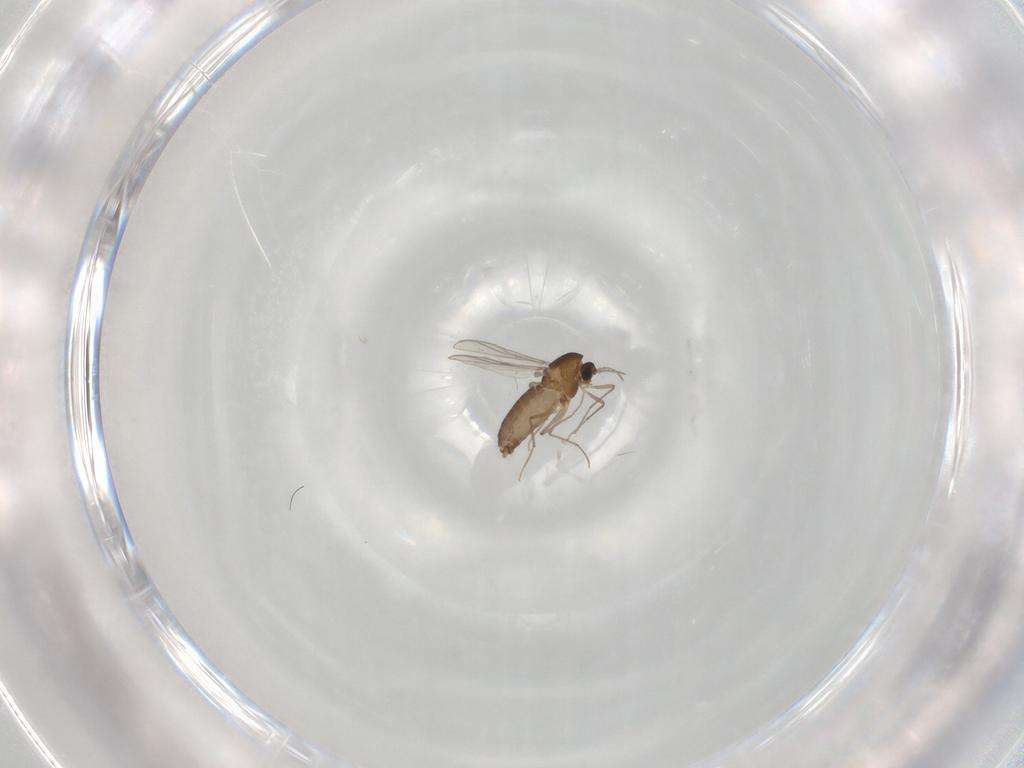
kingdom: Animalia
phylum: Arthropoda
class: Insecta
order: Diptera
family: Chironomidae
